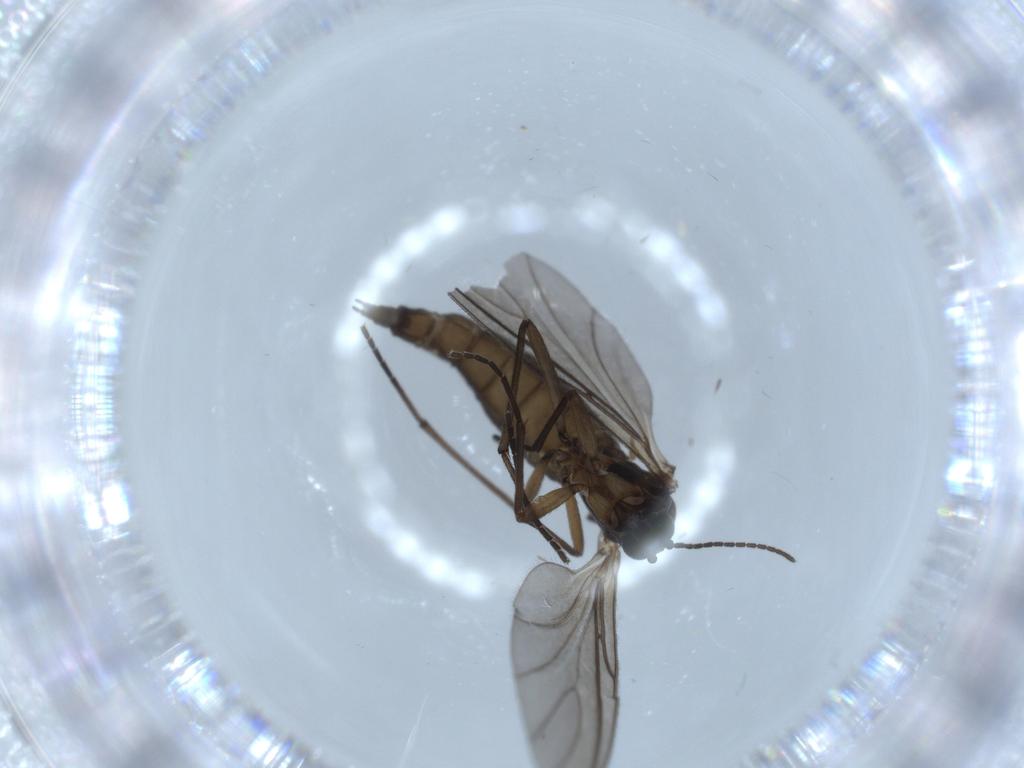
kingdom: Animalia
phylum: Arthropoda
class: Insecta
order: Diptera
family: Sciaridae
